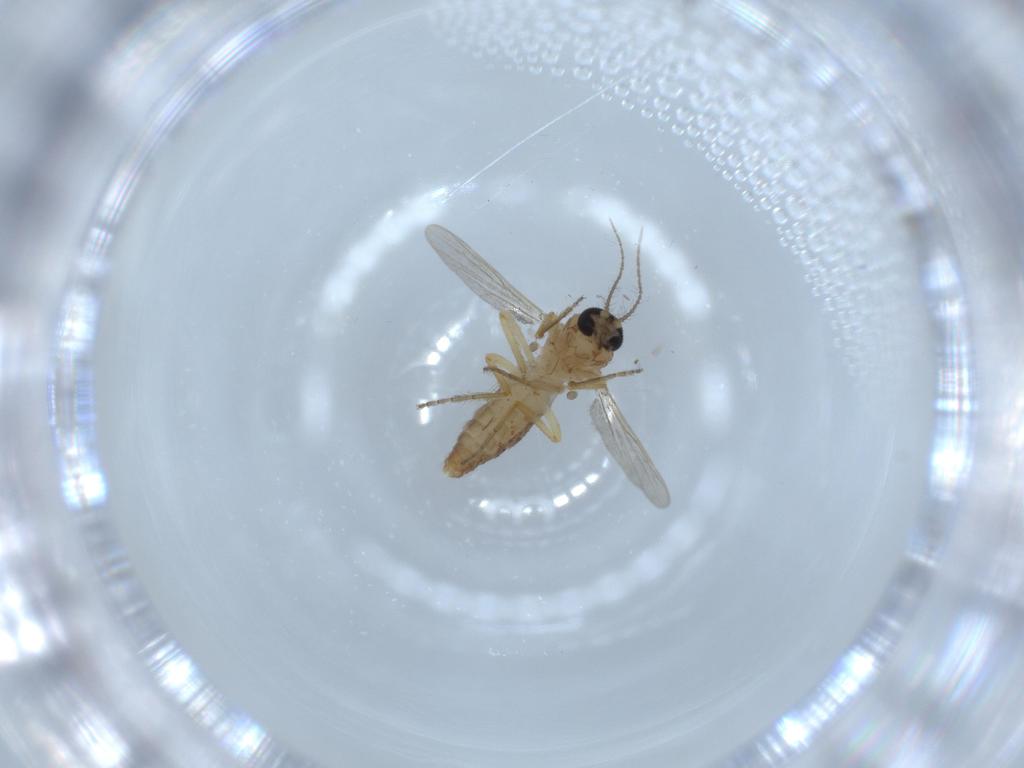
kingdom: Animalia
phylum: Arthropoda
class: Insecta
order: Diptera
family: Ceratopogonidae
